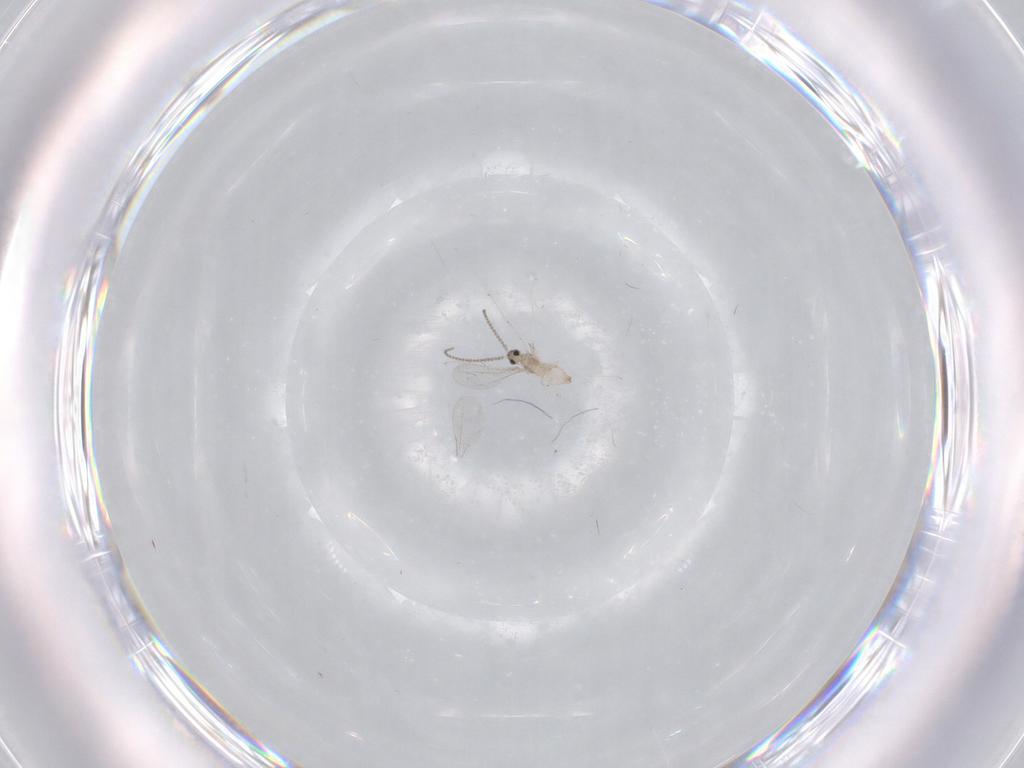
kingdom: Animalia
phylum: Arthropoda
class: Insecta
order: Diptera
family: Cecidomyiidae
